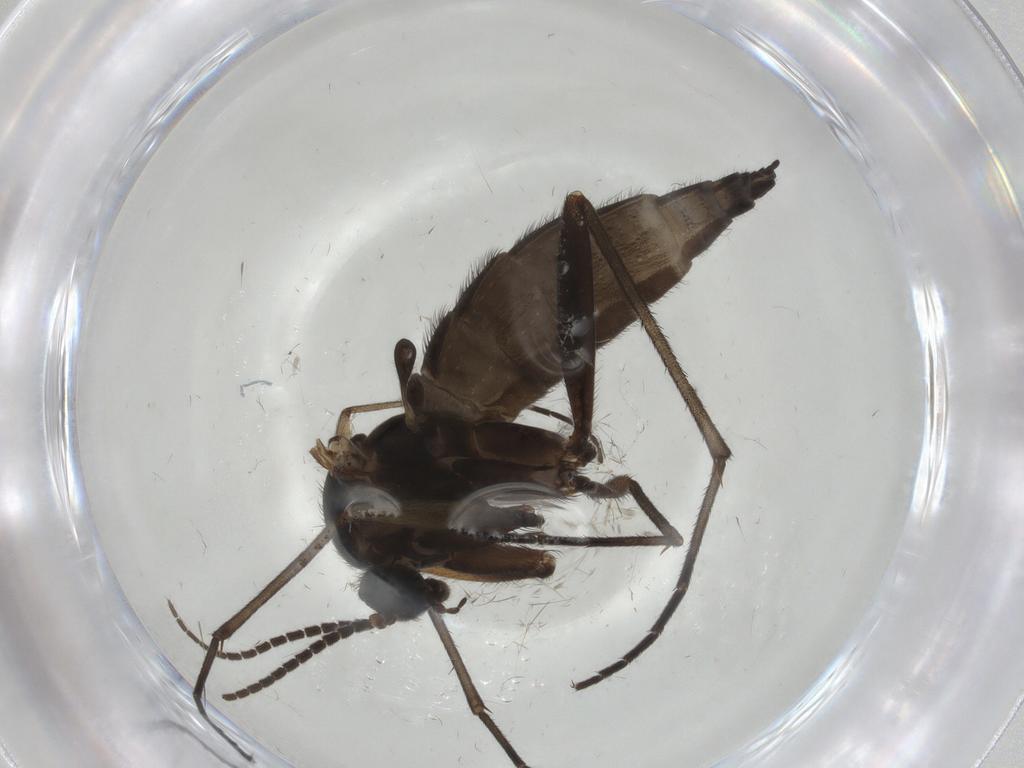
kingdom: Animalia
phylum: Arthropoda
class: Insecta
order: Diptera
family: Sciaridae
